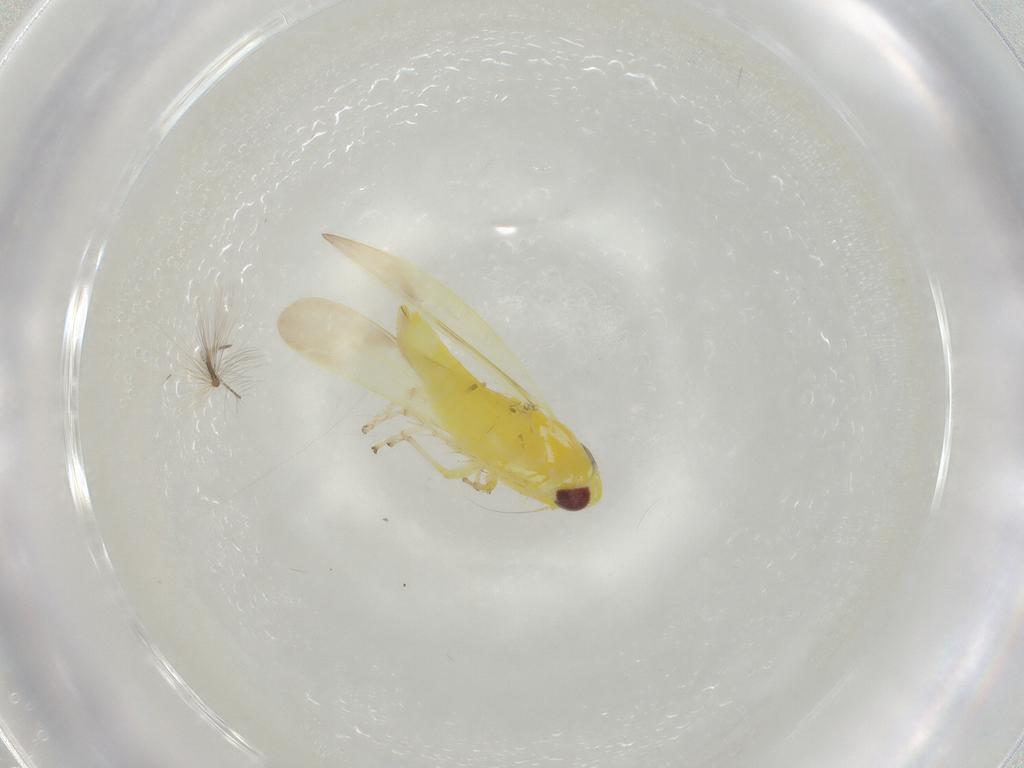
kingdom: Animalia
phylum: Arthropoda
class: Insecta
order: Hemiptera
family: Cicadellidae
